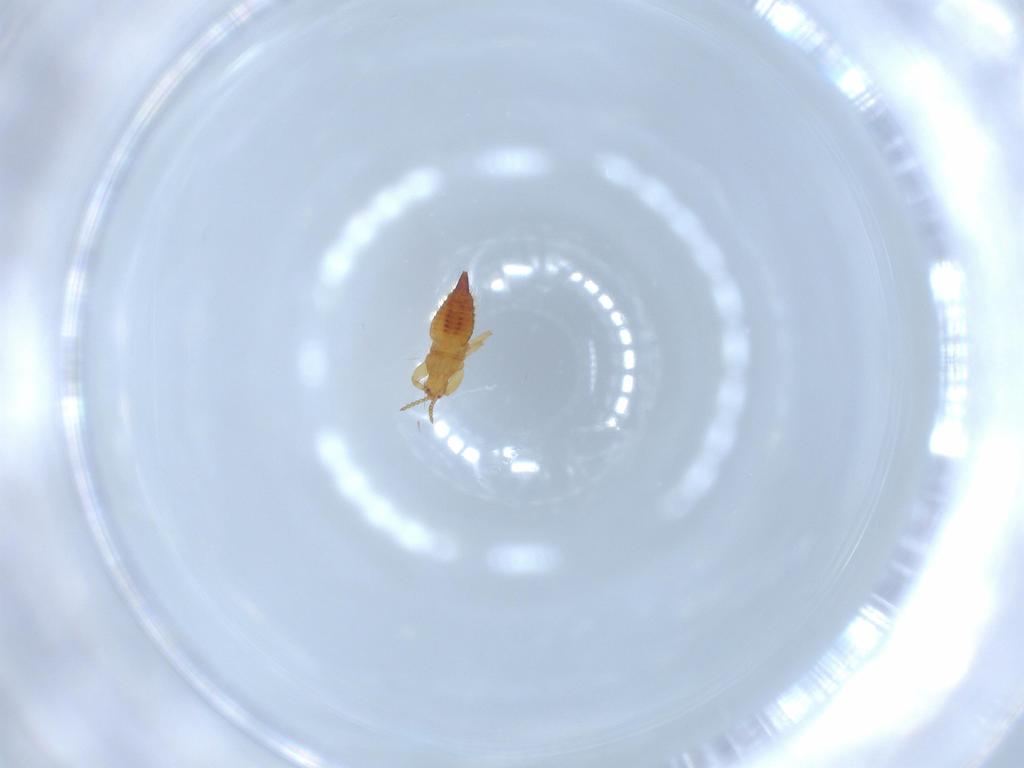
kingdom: Animalia
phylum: Arthropoda
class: Insecta
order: Thysanoptera
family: Phlaeothripidae
